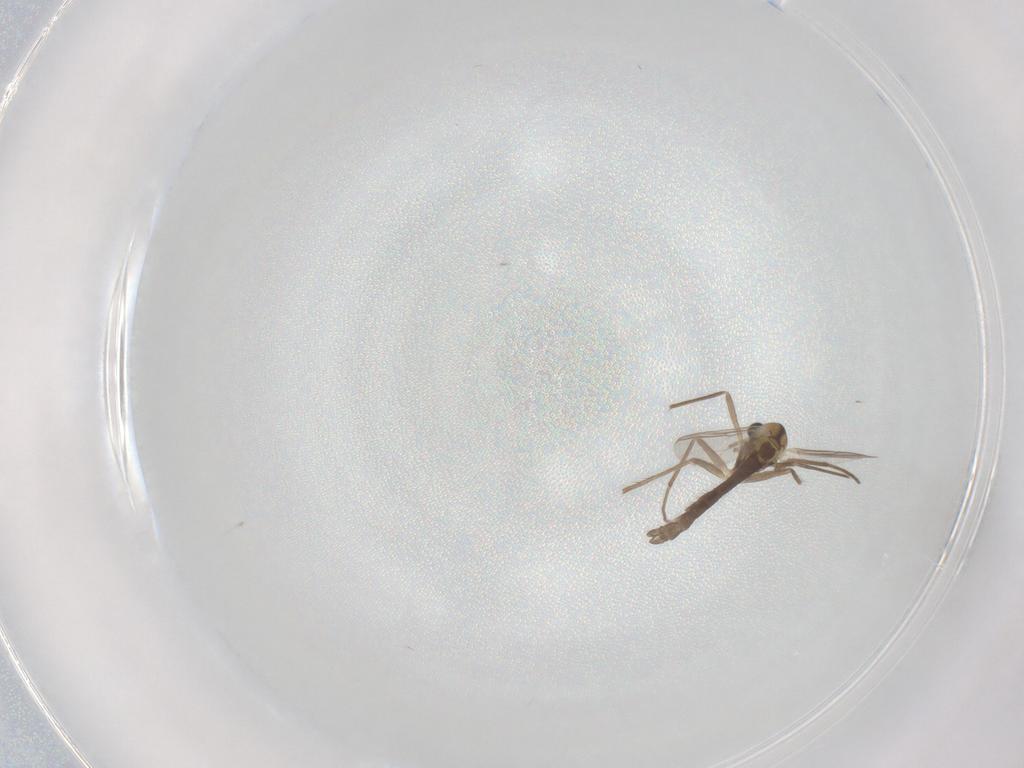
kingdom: Animalia
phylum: Arthropoda
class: Insecta
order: Diptera
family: Chironomidae
